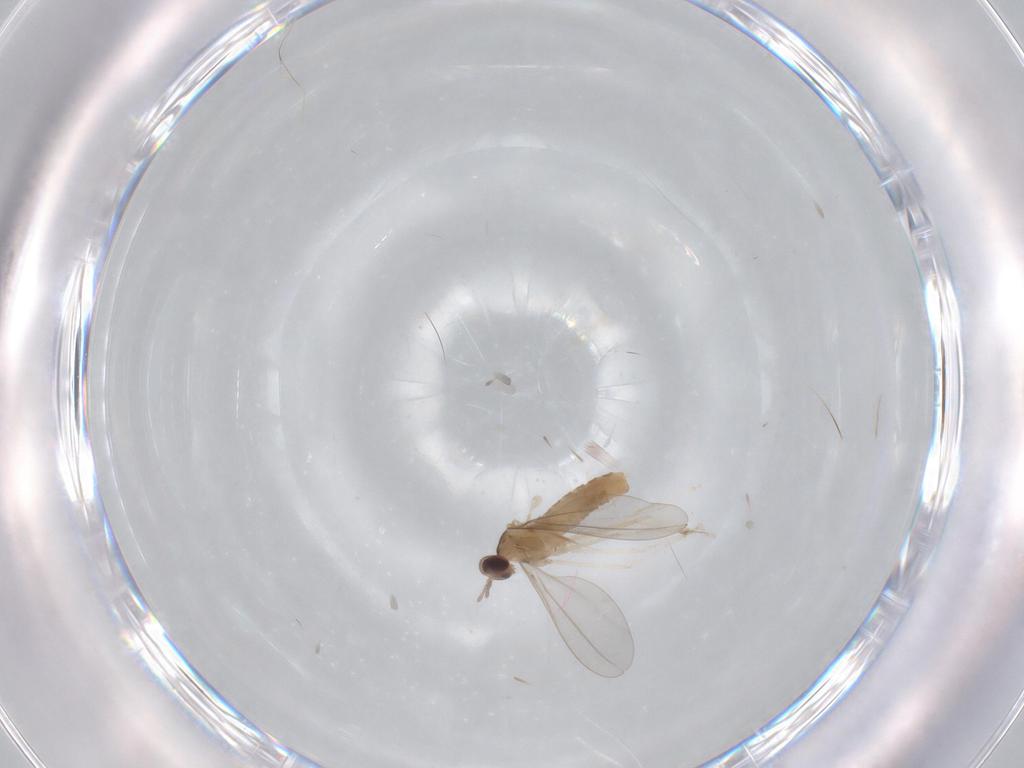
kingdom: Animalia
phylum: Arthropoda
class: Insecta
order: Diptera
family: Cecidomyiidae
